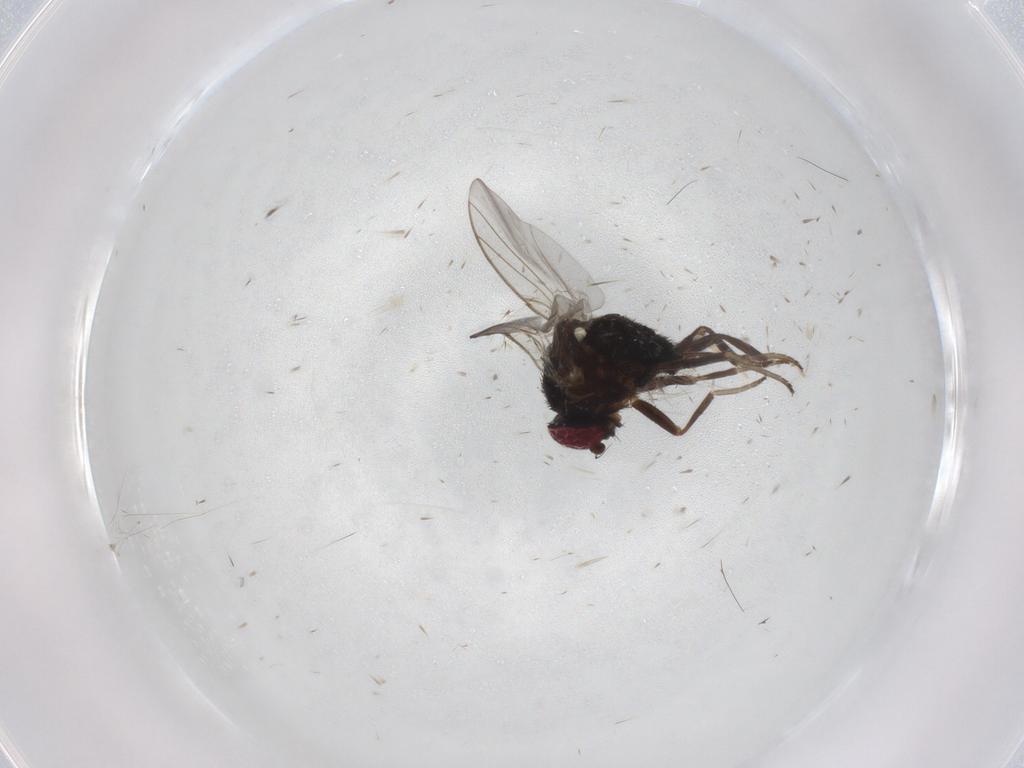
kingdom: Animalia
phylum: Arthropoda
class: Insecta
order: Diptera
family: Agromyzidae
